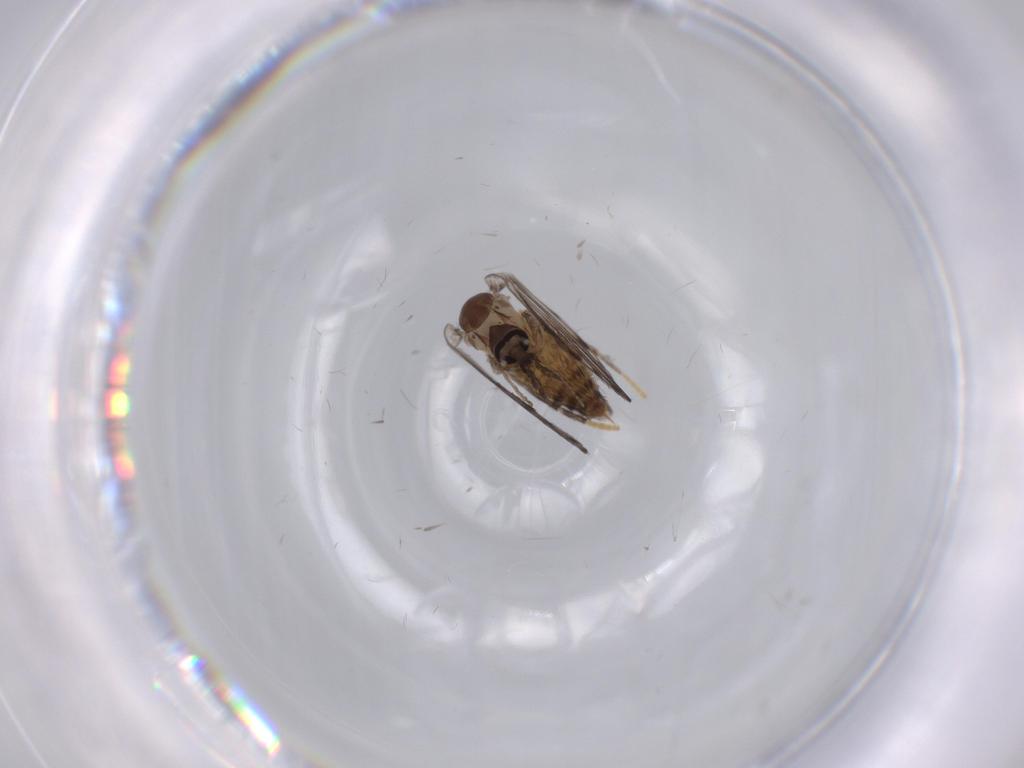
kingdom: Animalia
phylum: Arthropoda
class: Insecta
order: Diptera
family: Psychodidae
